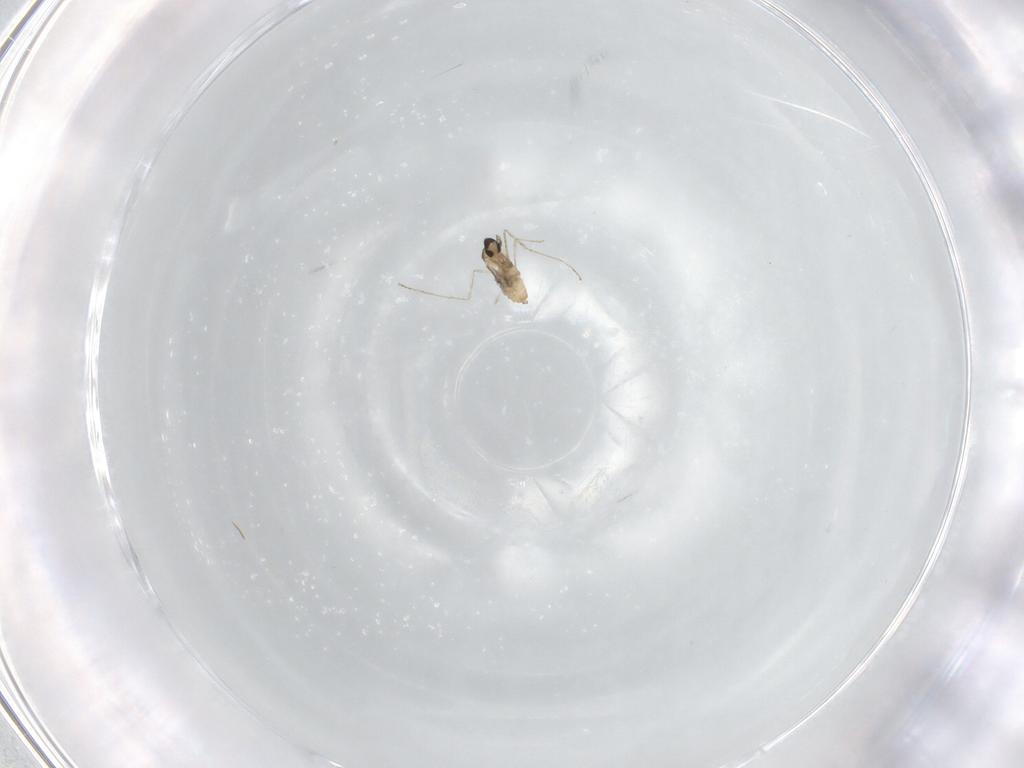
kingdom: Animalia
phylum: Arthropoda
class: Insecta
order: Diptera
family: Cecidomyiidae
